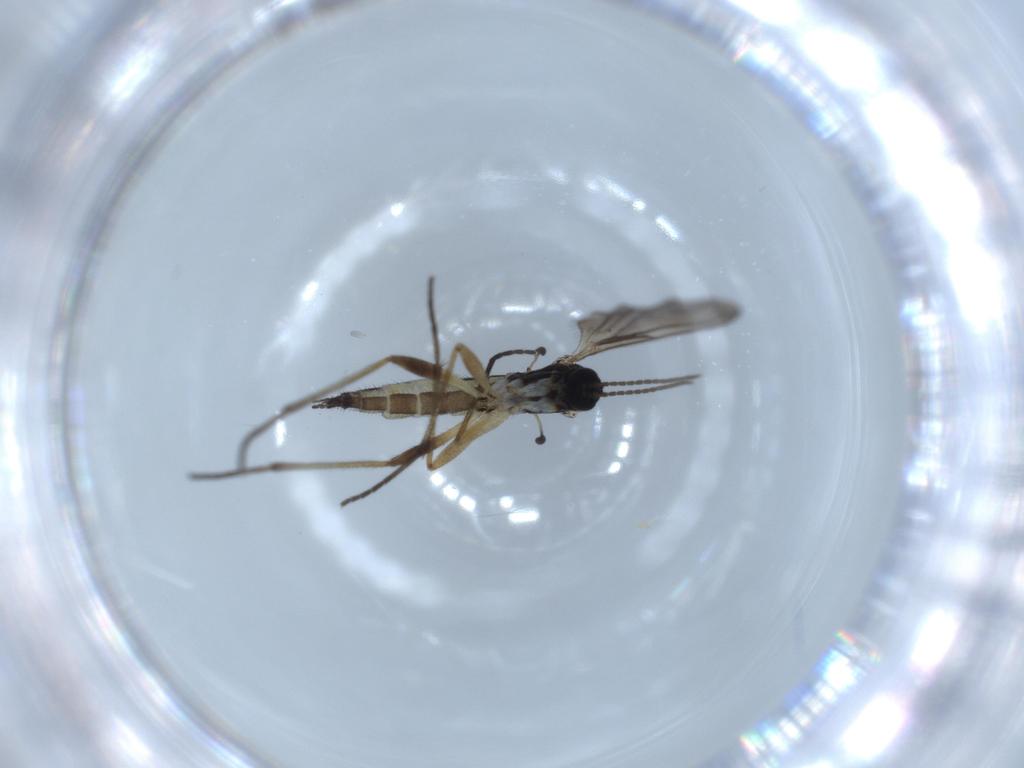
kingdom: Animalia
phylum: Arthropoda
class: Insecta
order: Diptera
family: Sciaridae
